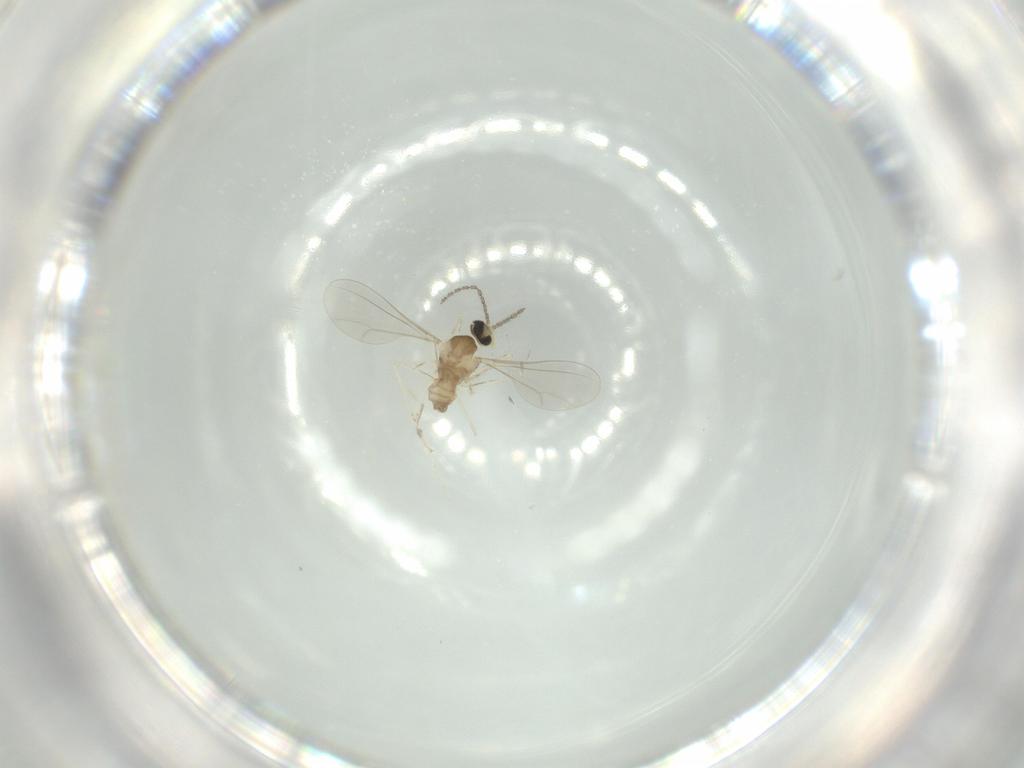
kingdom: Animalia
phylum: Arthropoda
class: Insecta
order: Diptera
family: Cecidomyiidae
